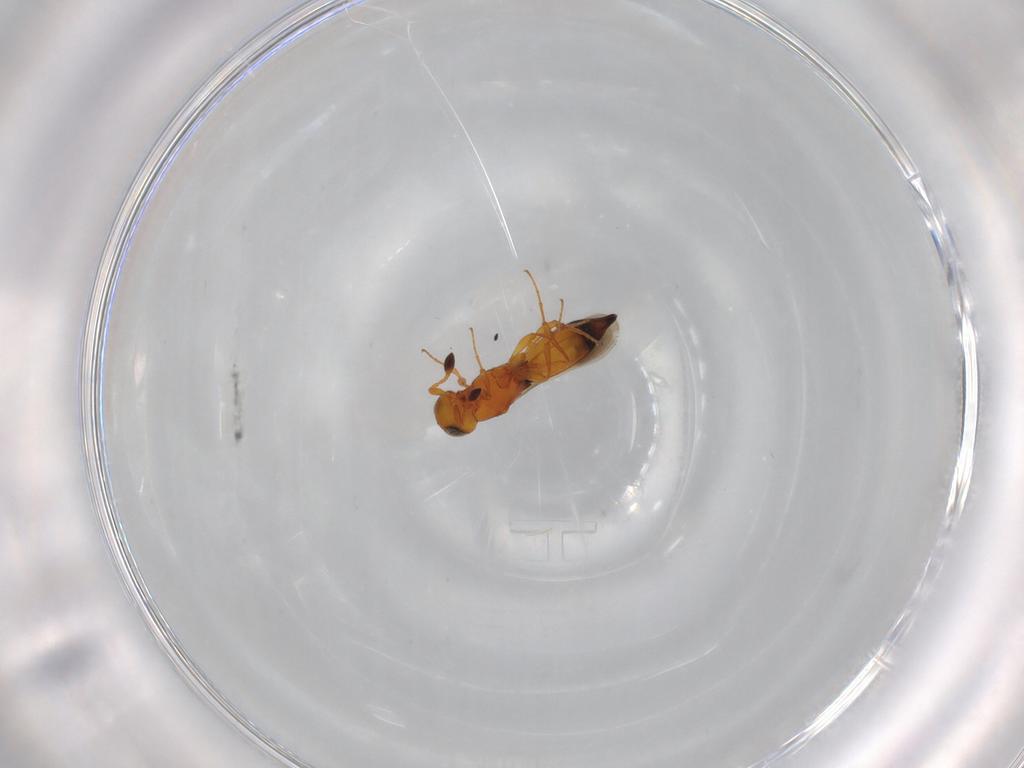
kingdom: Animalia
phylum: Arthropoda
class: Insecta
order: Hymenoptera
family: Platygastridae
